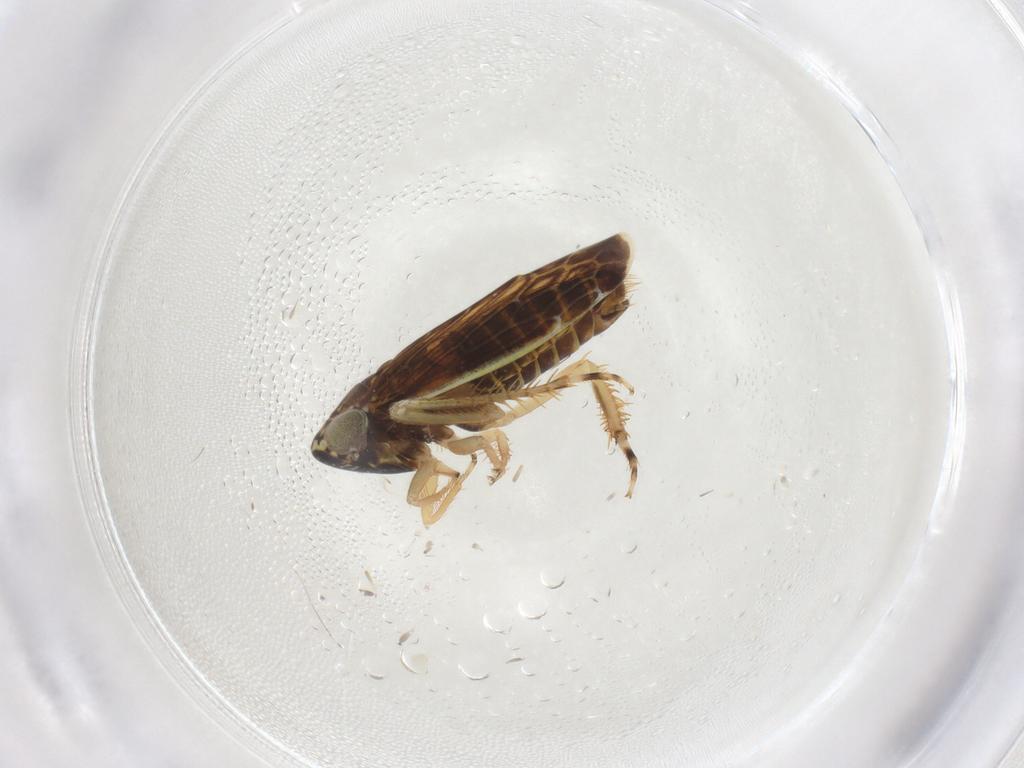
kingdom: Animalia
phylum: Arthropoda
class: Insecta
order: Hemiptera
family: Cicadellidae
